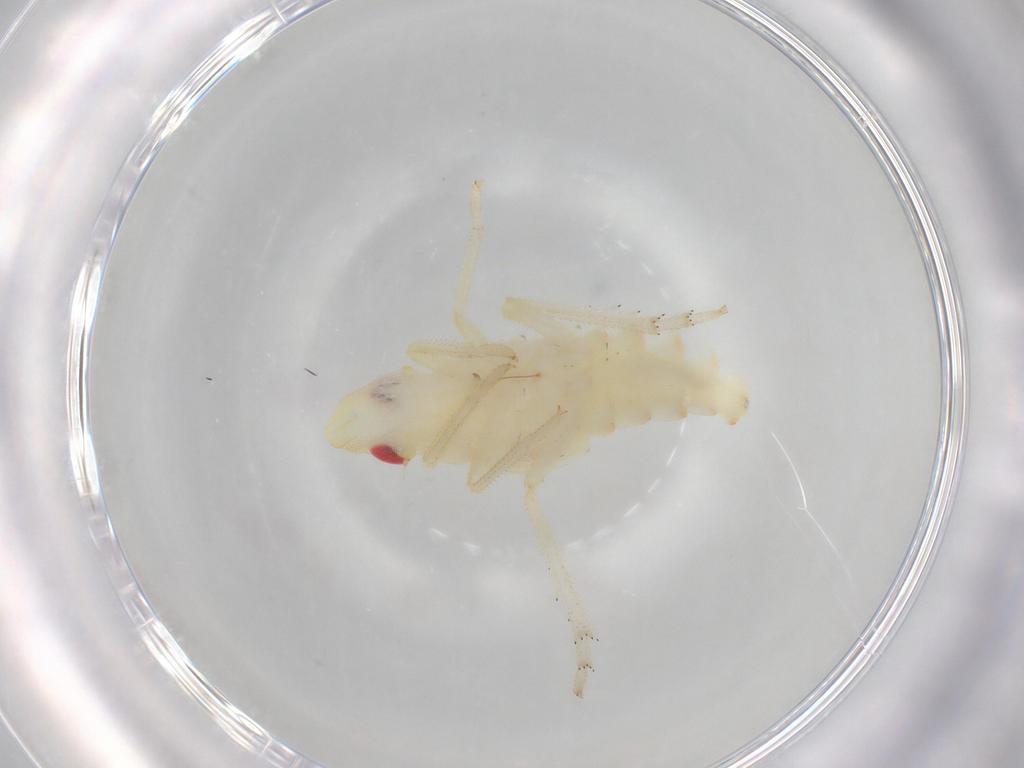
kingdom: Animalia
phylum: Arthropoda
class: Insecta
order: Hemiptera
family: Tropiduchidae
